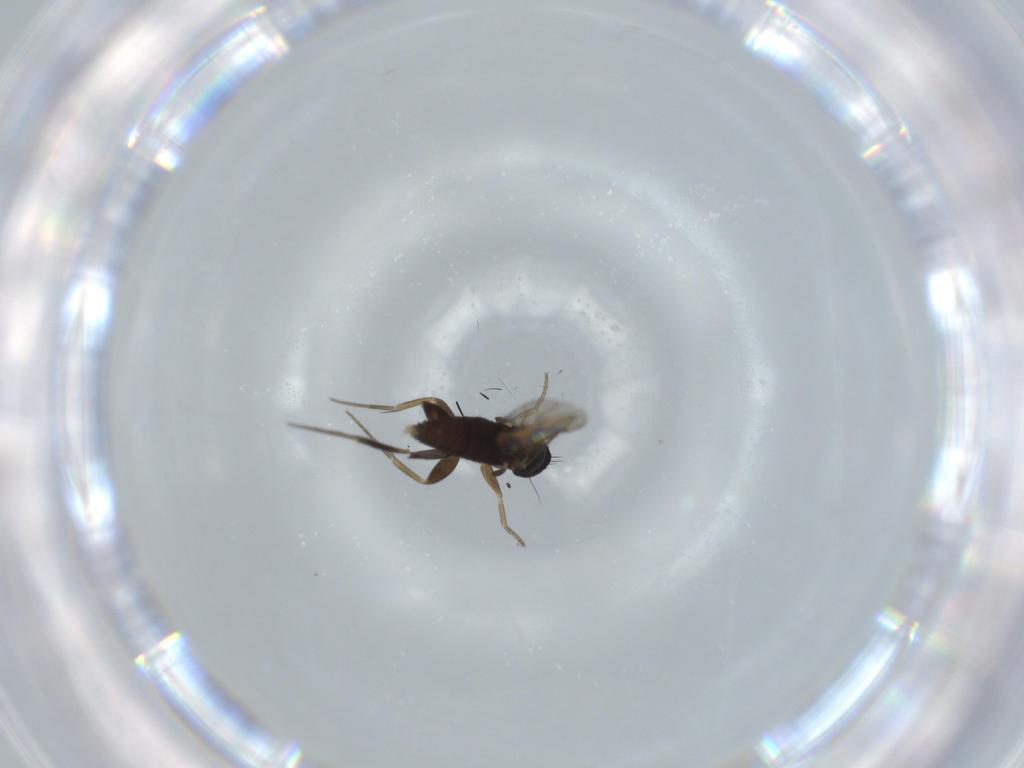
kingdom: Animalia
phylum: Arthropoda
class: Insecta
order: Diptera
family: Phoridae
